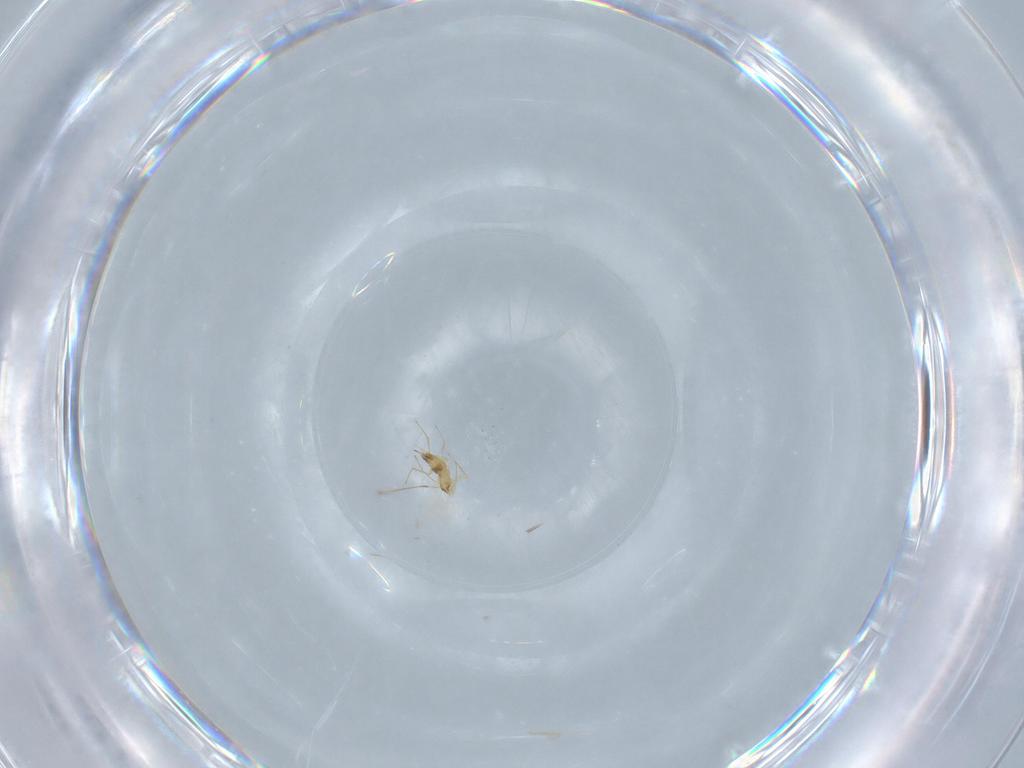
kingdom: Animalia
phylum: Arthropoda
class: Insecta
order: Hymenoptera
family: Mymaridae
